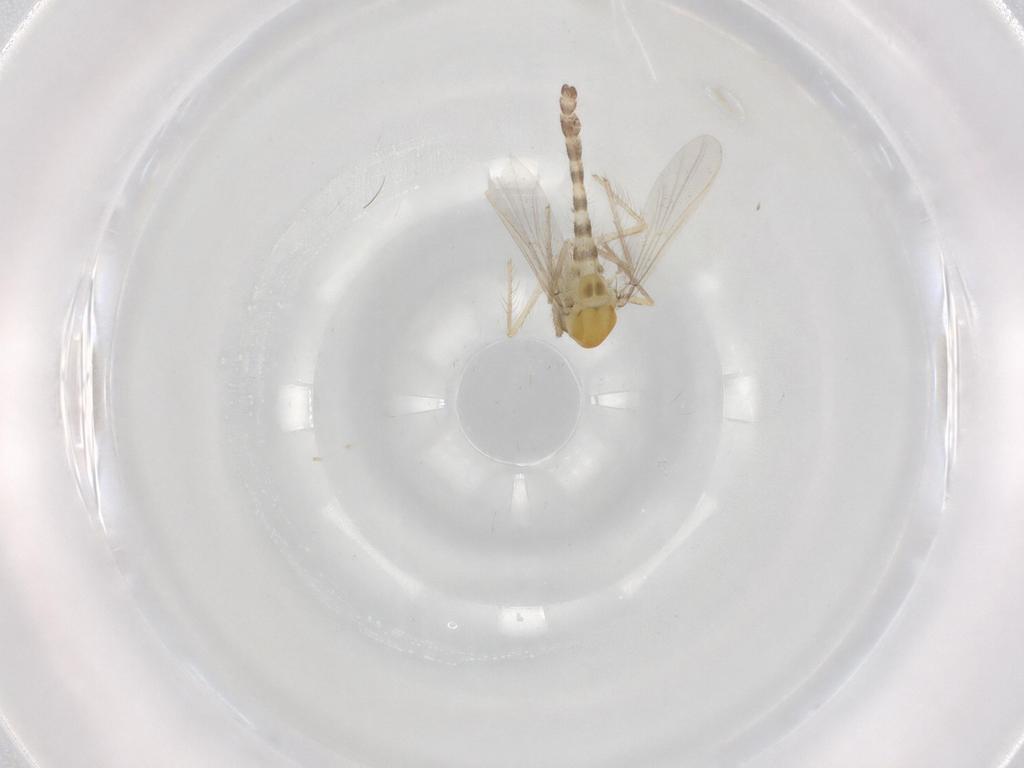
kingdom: Animalia
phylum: Arthropoda
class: Insecta
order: Diptera
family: Chironomidae
